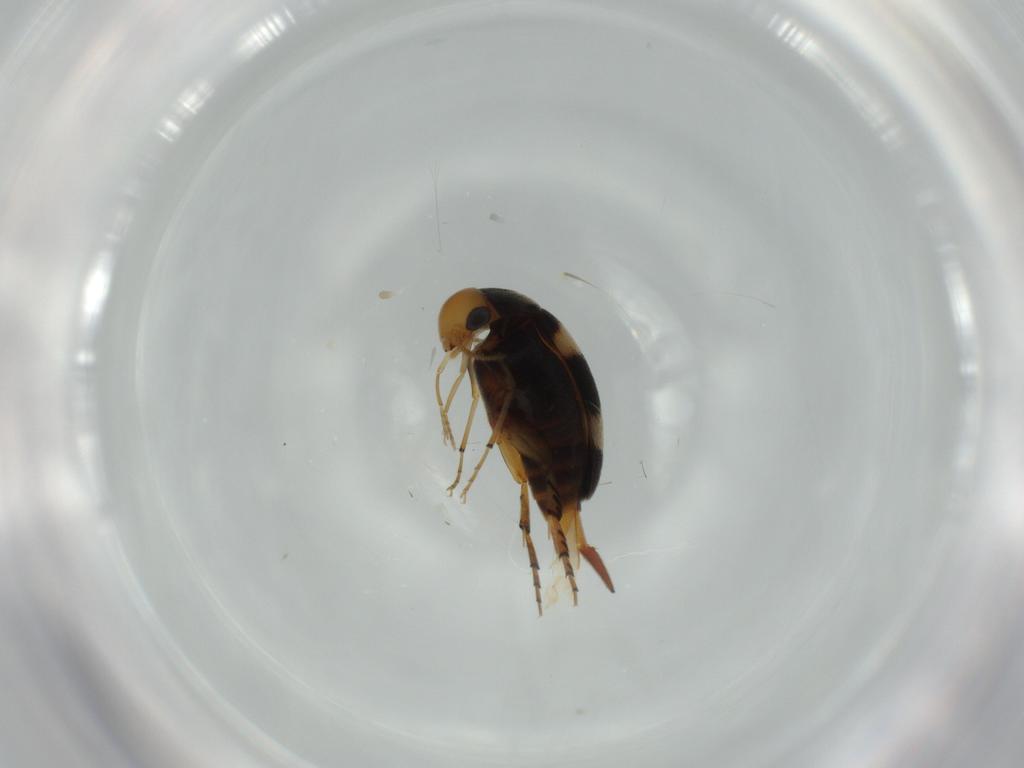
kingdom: Animalia
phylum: Arthropoda
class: Insecta
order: Coleoptera
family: Mordellidae
